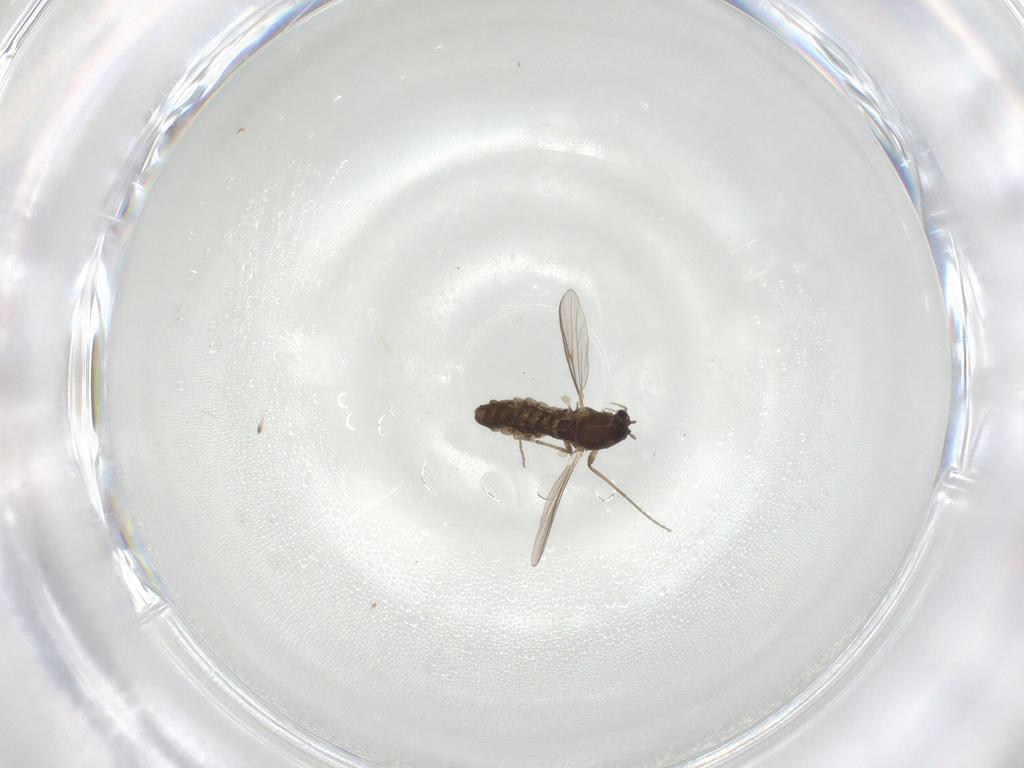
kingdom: Animalia
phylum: Arthropoda
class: Insecta
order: Diptera
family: Chironomidae
